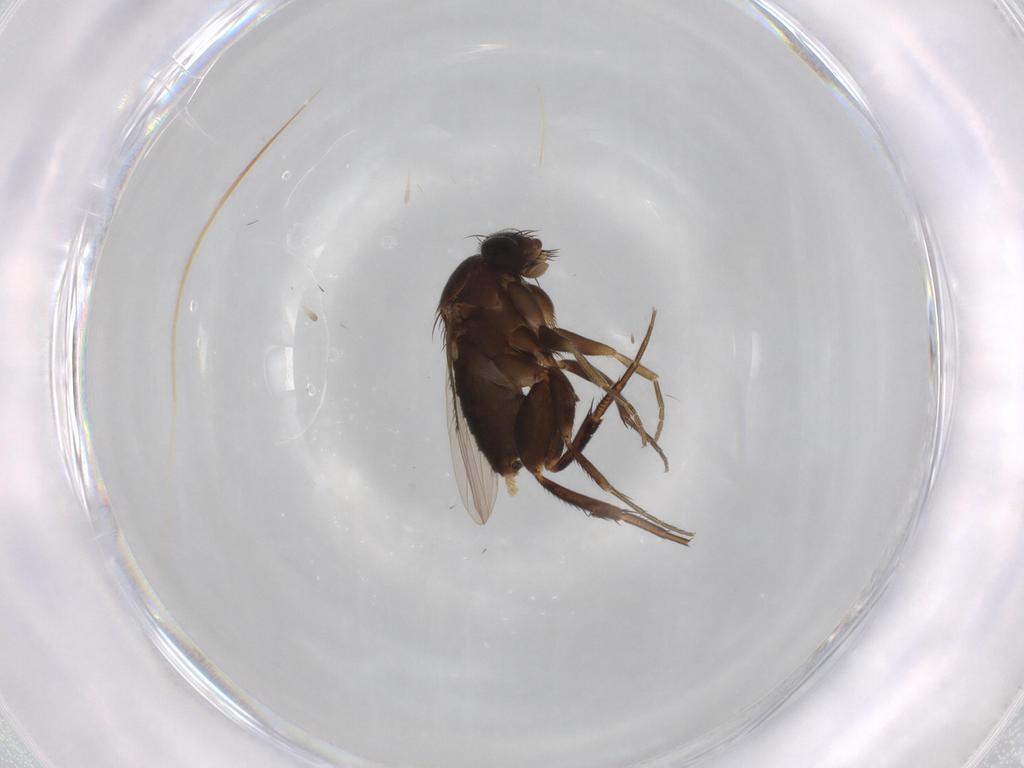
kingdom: Animalia
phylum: Arthropoda
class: Insecta
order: Diptera
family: Phoridae
